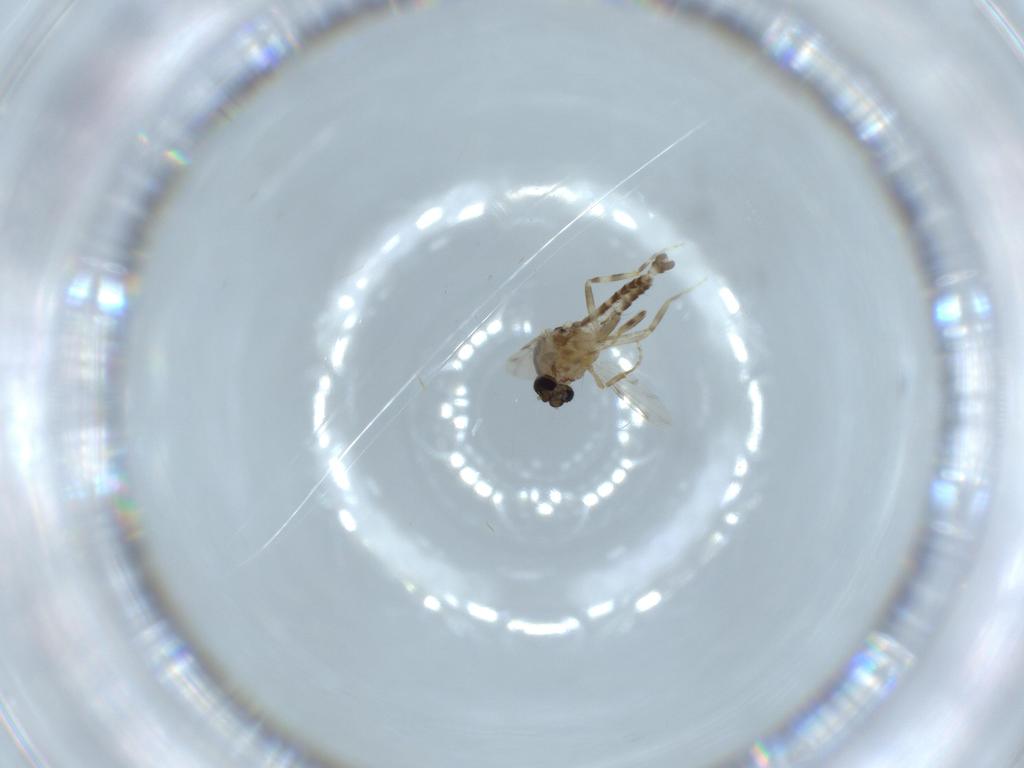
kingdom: Animalia
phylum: Arthropoda
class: Insecta
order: Diptera
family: Ceratopogonidae
